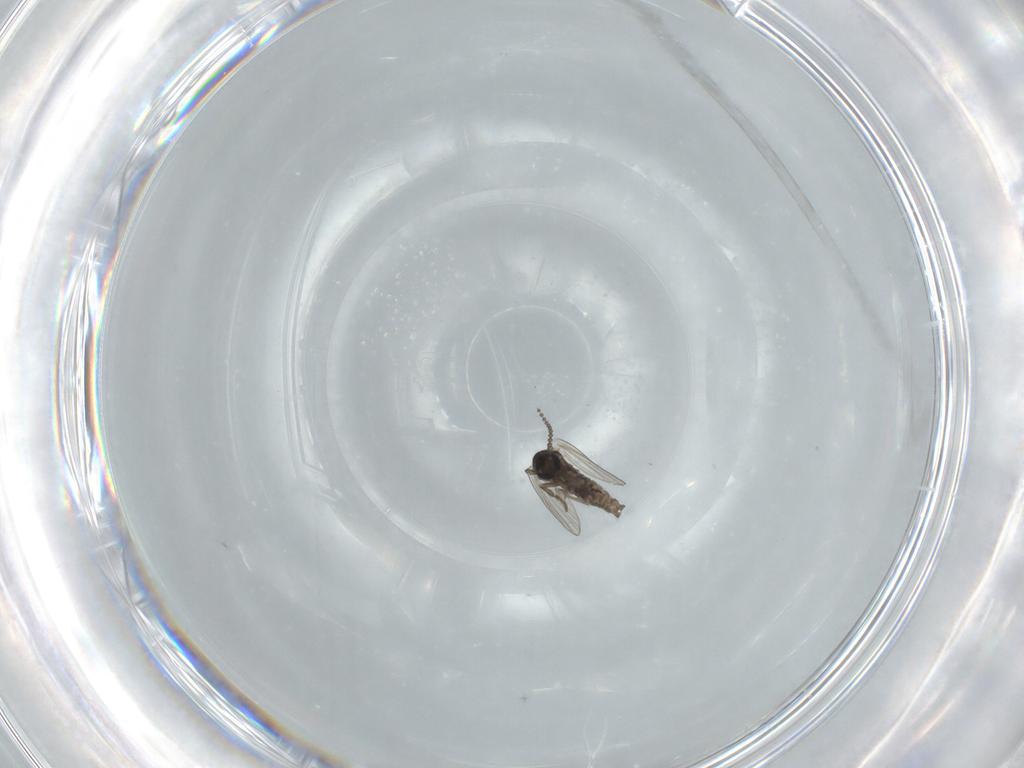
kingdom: Animalia
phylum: Arthropoda
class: Insecta
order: Diptera
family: Psychodidae
